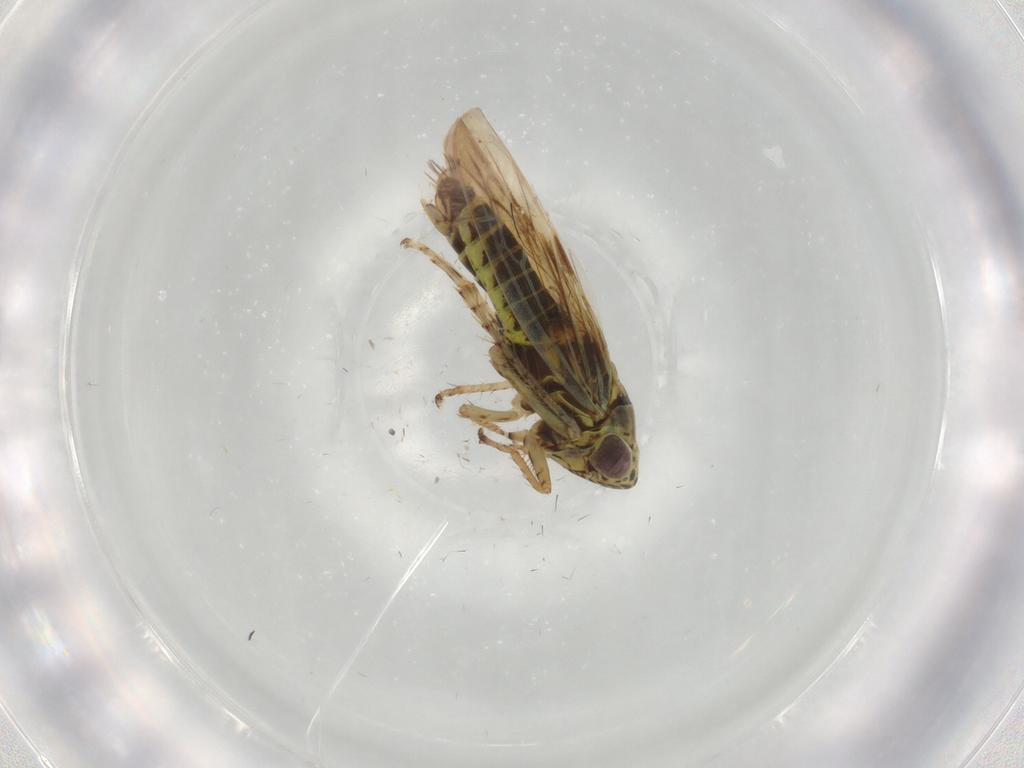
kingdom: Animalia
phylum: Arthropoda
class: Insecta
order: Hemiptera
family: Cicadellidae
